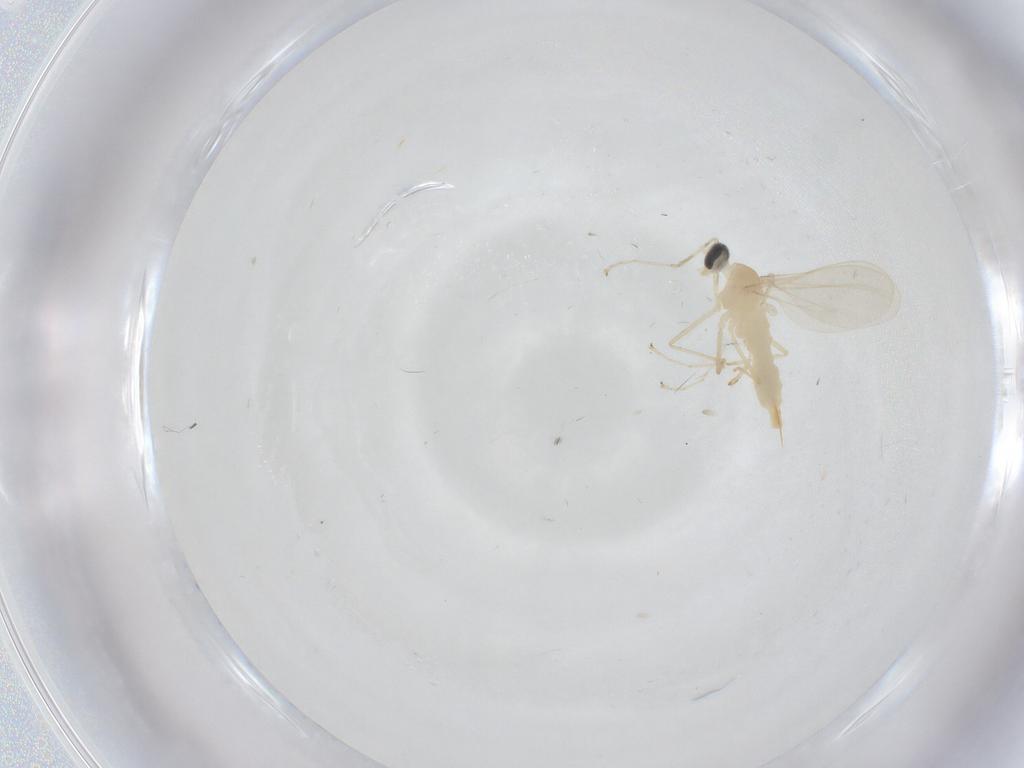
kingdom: Animalia
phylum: Arthropoda
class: Insecta
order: Diptera
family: Cecidomyiidae
